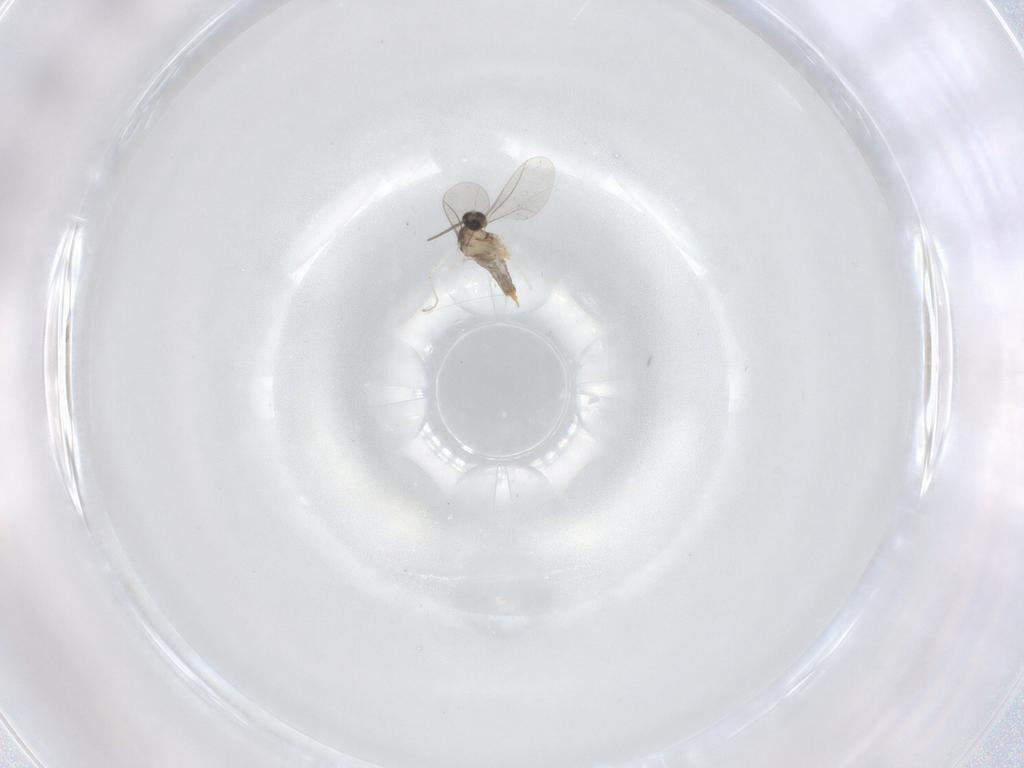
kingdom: Animalia
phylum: Arthropoda
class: Insecta
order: Diptera
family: Cecidomyiidae
